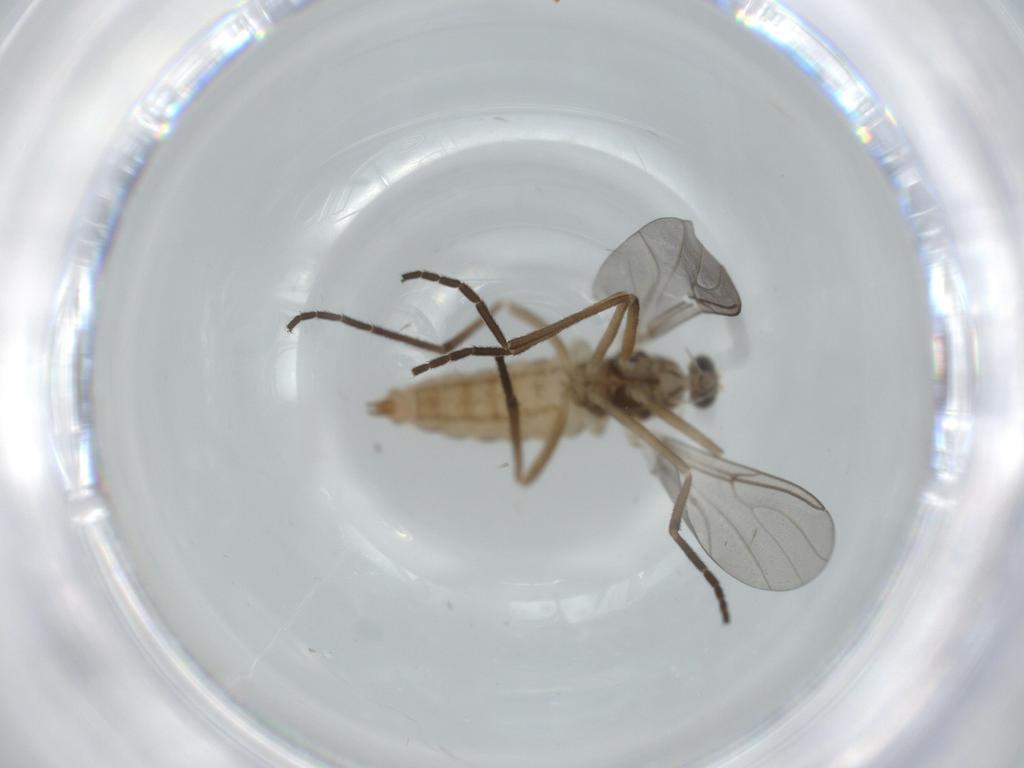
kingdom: Animalia
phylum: Arthropoda
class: Insecta
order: Diptera
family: Cecidomyiidae
